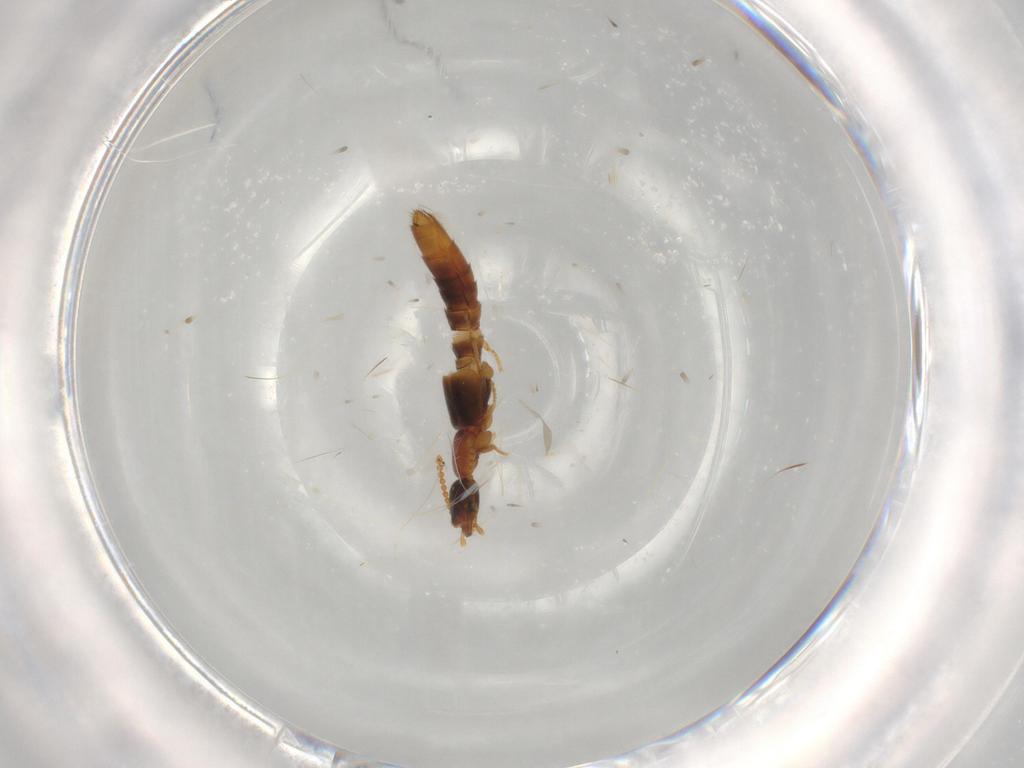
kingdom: Animalia
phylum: Arthropoda
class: Insecta
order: Coleoptera
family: Staphylinidae
